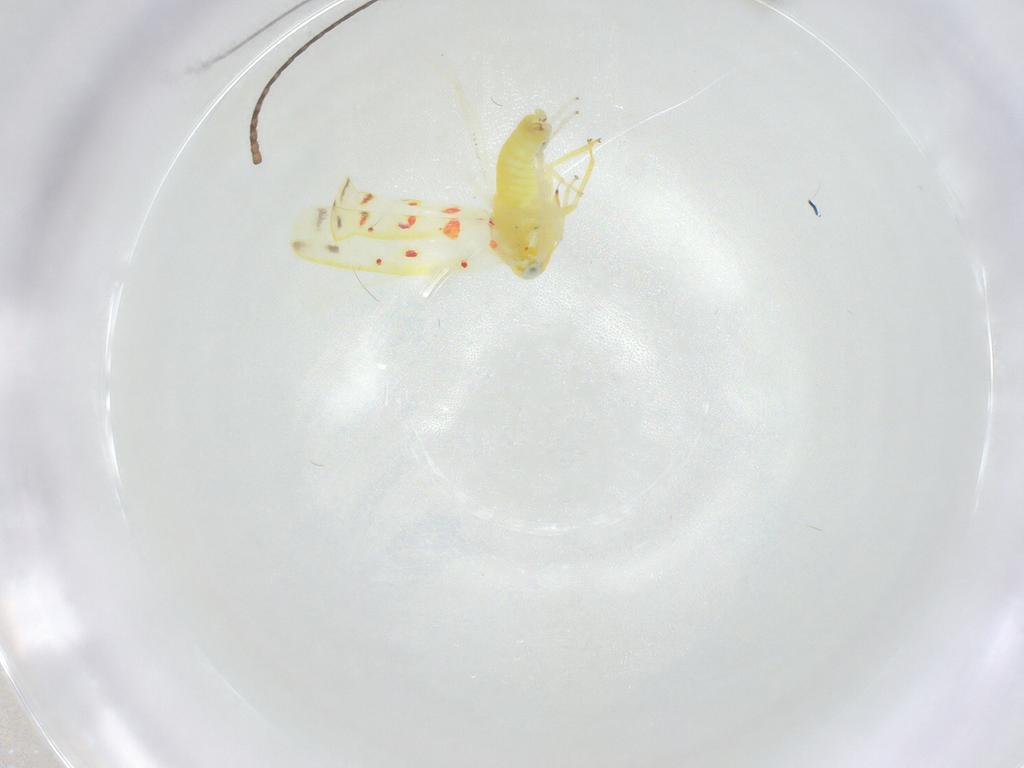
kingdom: Animalia
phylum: Arthropoda
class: Insecta
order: Hemiptera
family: Cicadellidae
